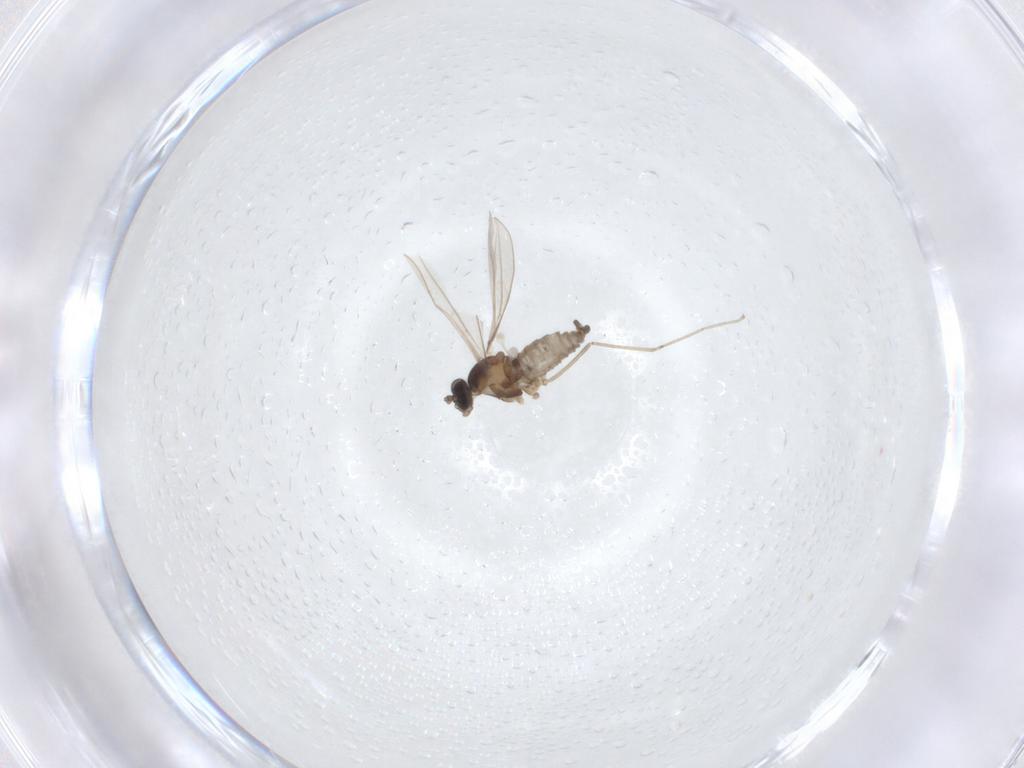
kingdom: Animalia
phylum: Arthropoda
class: Insecta
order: Diptera
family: Cecidomyiidae
